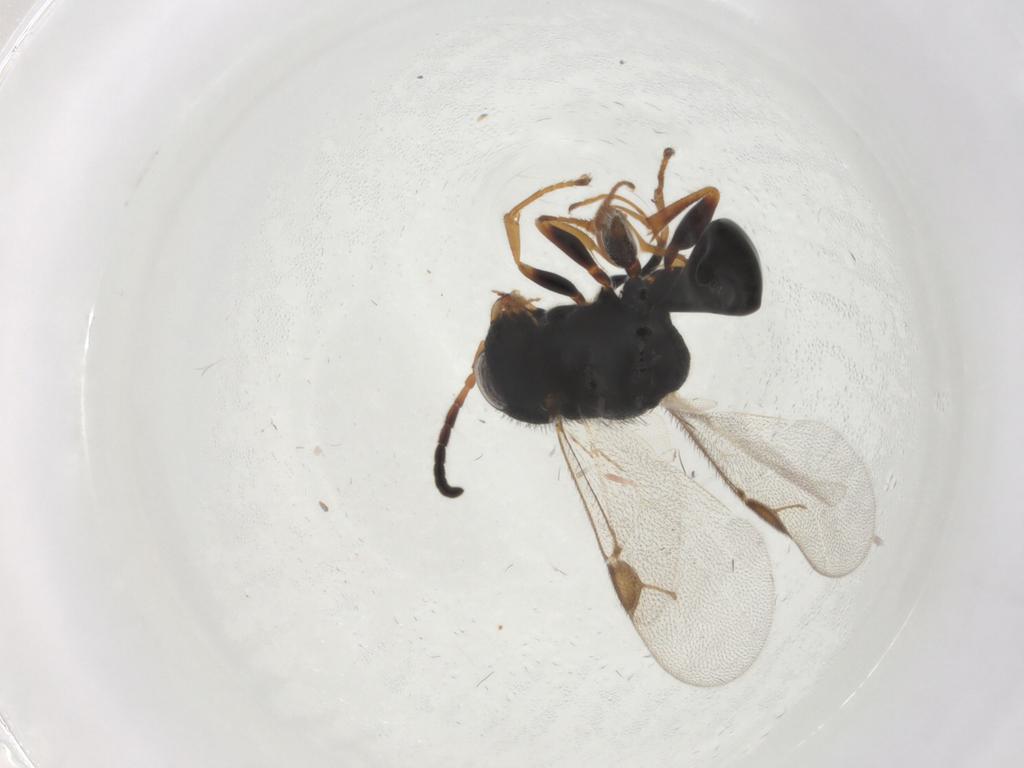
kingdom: Animalia
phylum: Arthropoda
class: Insecta
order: Hymenoptera
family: Dryinidae
